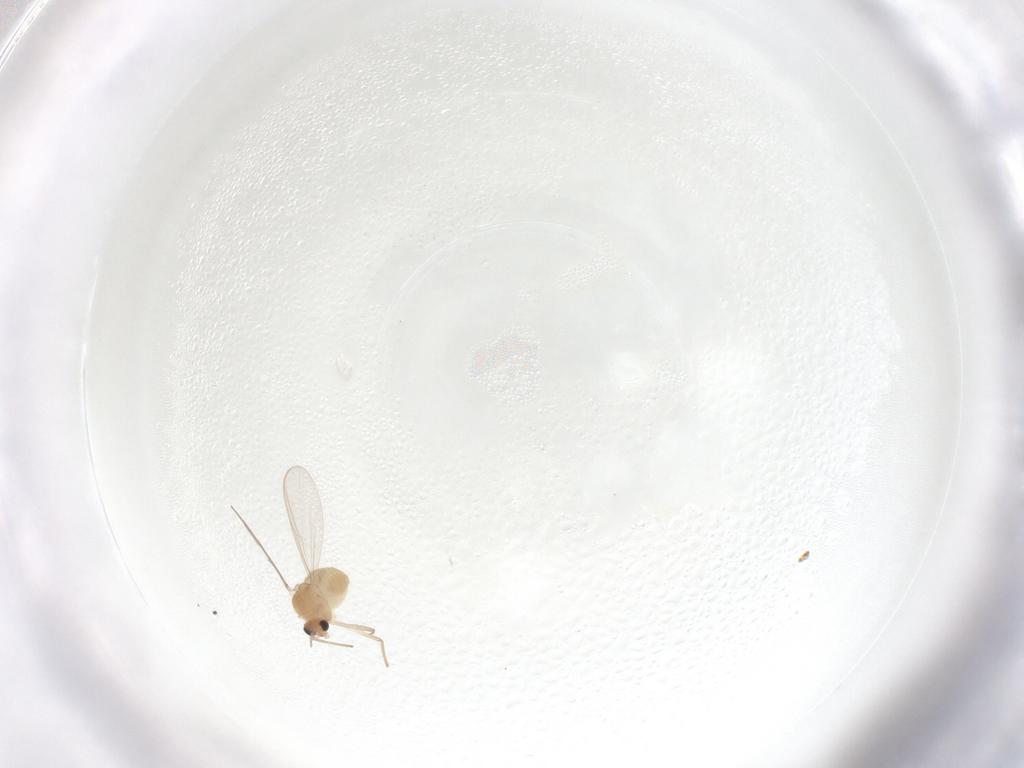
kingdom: Animalia
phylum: Arthropoda
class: Insecta
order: Diptera
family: Chironomidae
